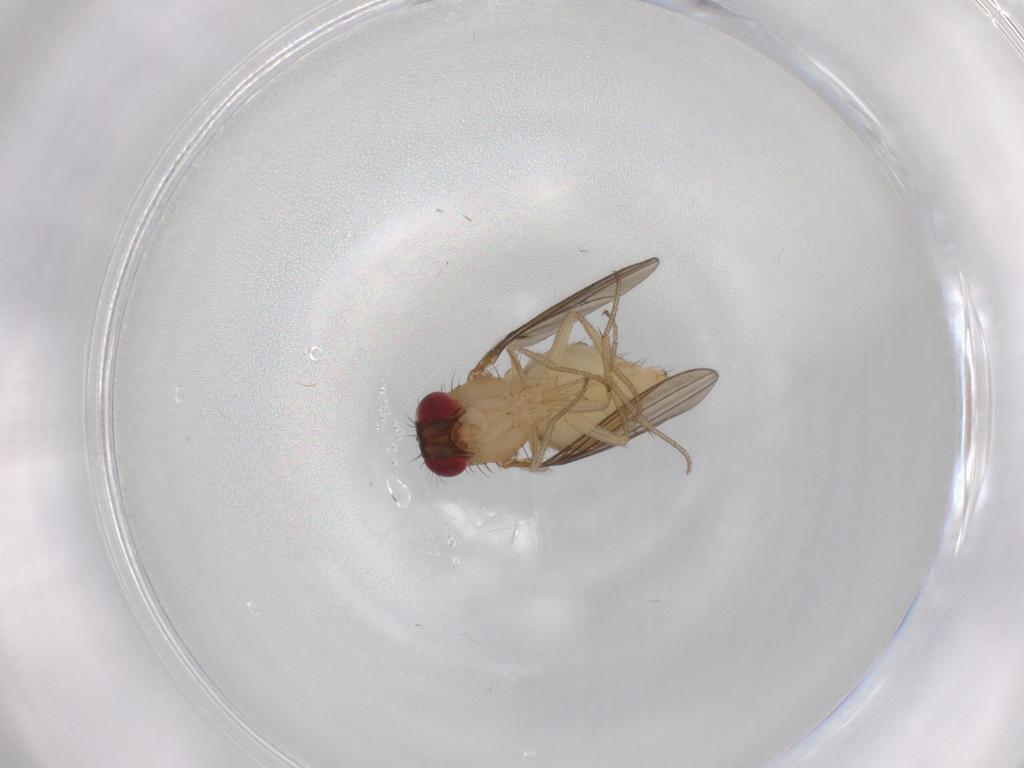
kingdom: Animalia
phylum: Arthropoda
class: Insecta
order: Diptera
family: Drosophilidae
